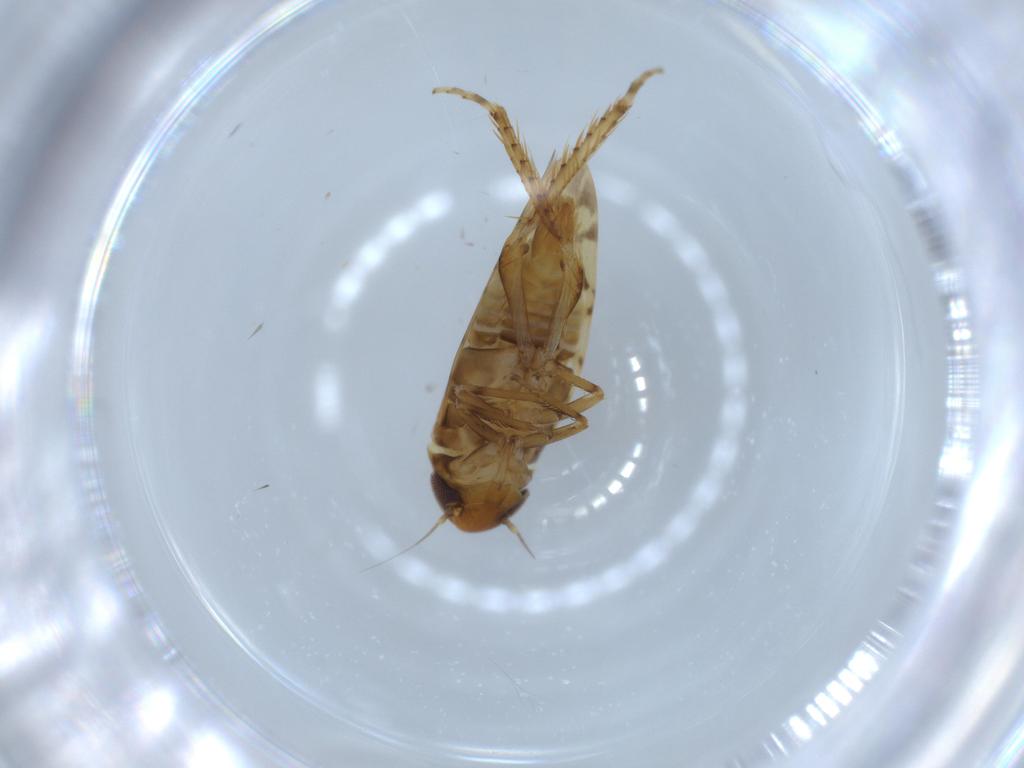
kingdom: Animalia
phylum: Arthropoda
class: Insecta
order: Hemiptera
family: Cicadellidae
